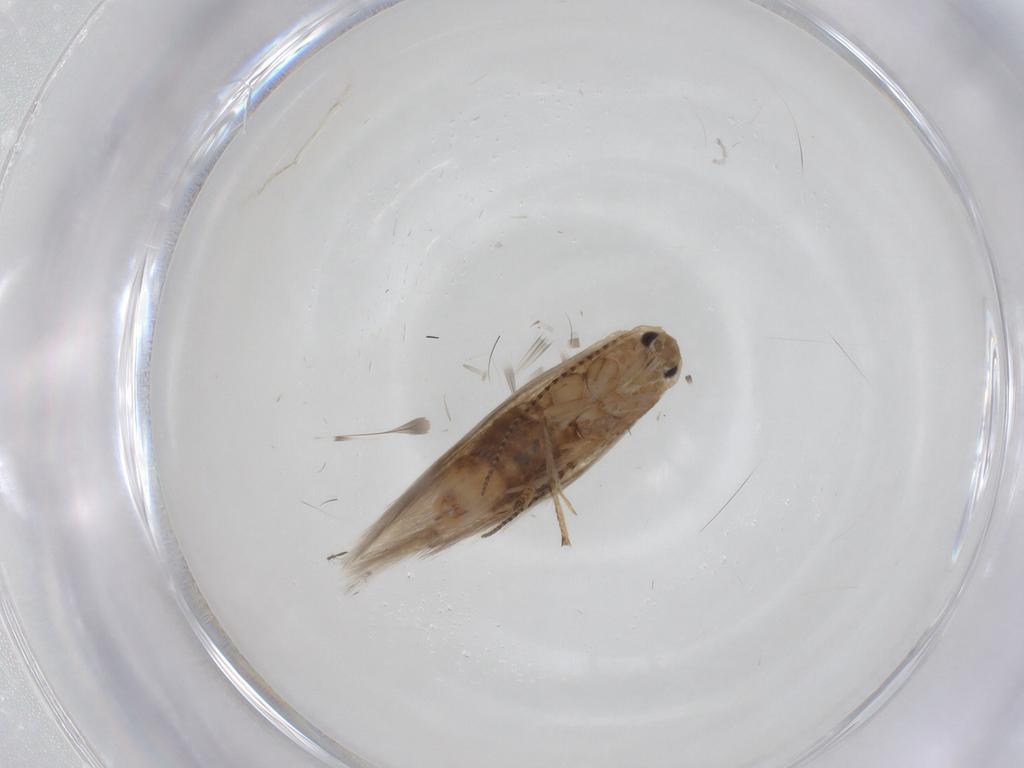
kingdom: Animalia
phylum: Arthropoda
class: Insecta
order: Lepidoptera
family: Bucculatricidae
